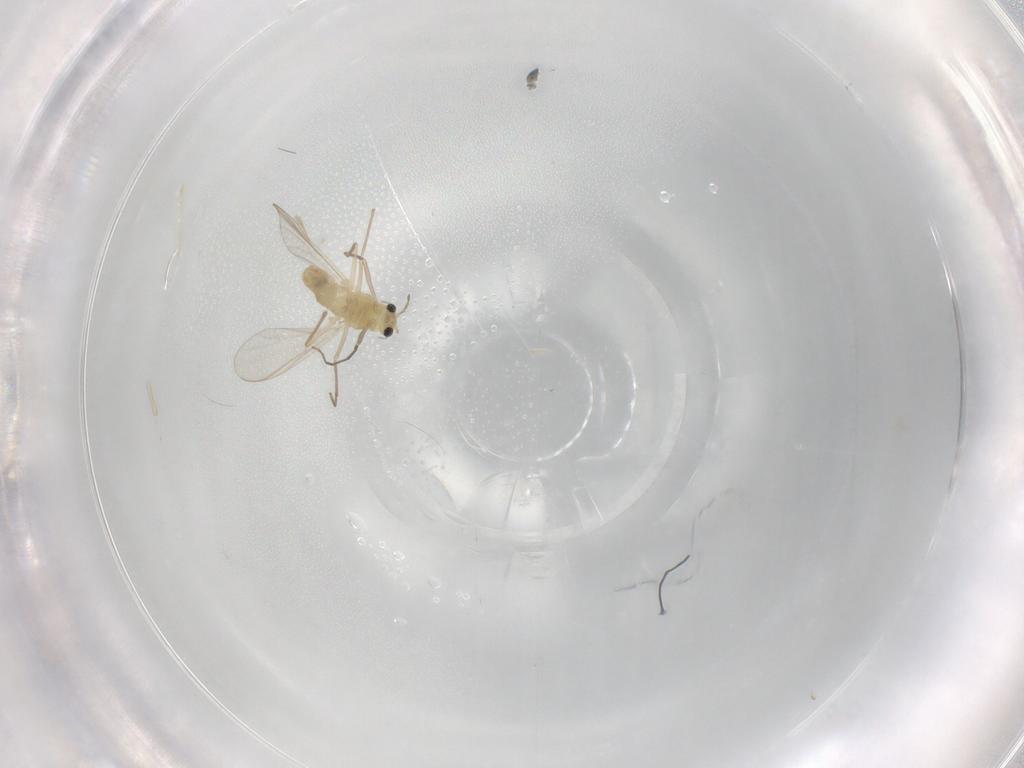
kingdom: Animalia
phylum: Arthropoda
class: Insecta
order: Diptera
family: Chironomidae
